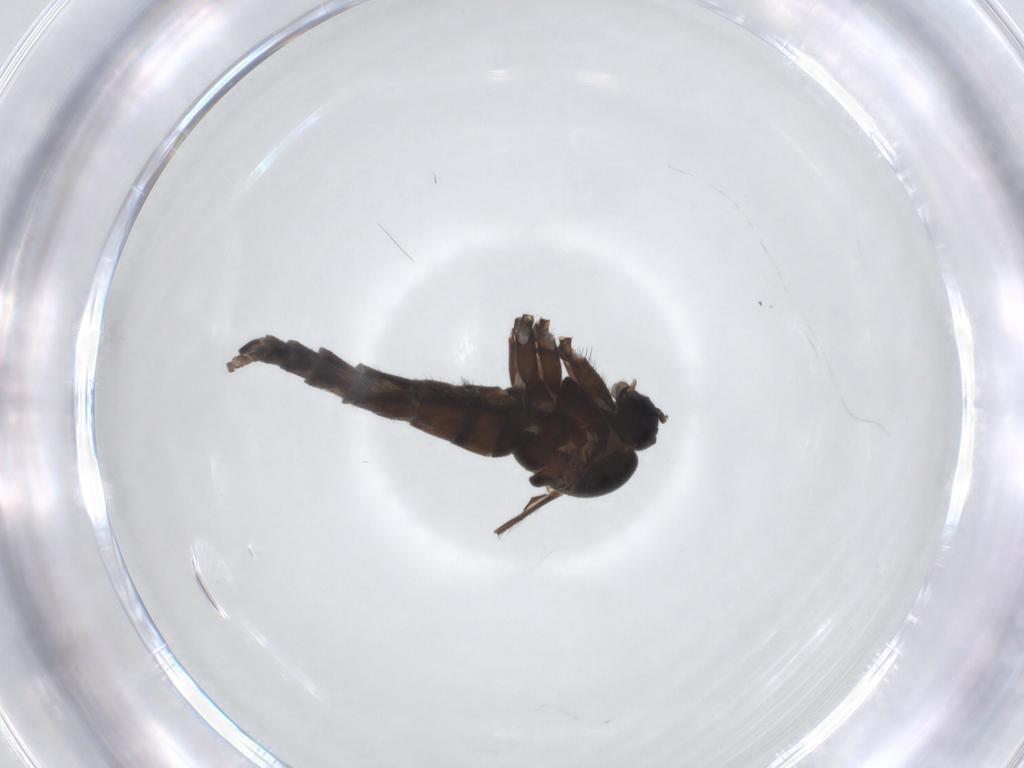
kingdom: Animalia
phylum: Arthropoda
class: Insecta
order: Diptera
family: Sciaridae
